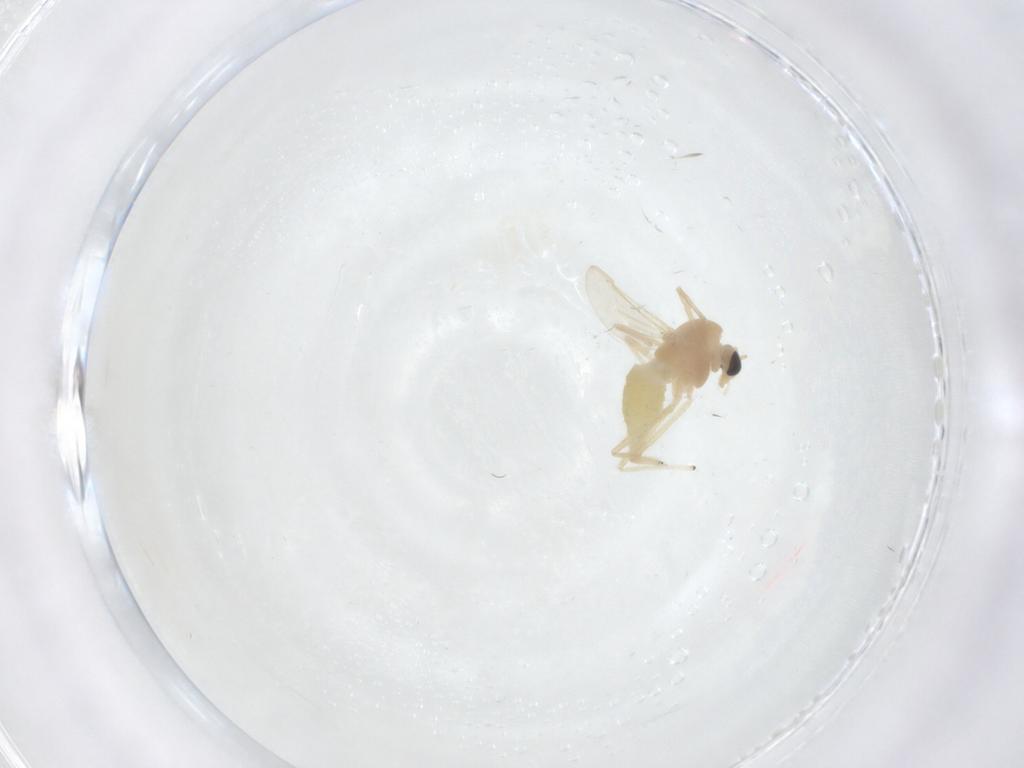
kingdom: Animalia
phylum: Arthropoda
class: Insecta
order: Diptera
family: Chironomidae
